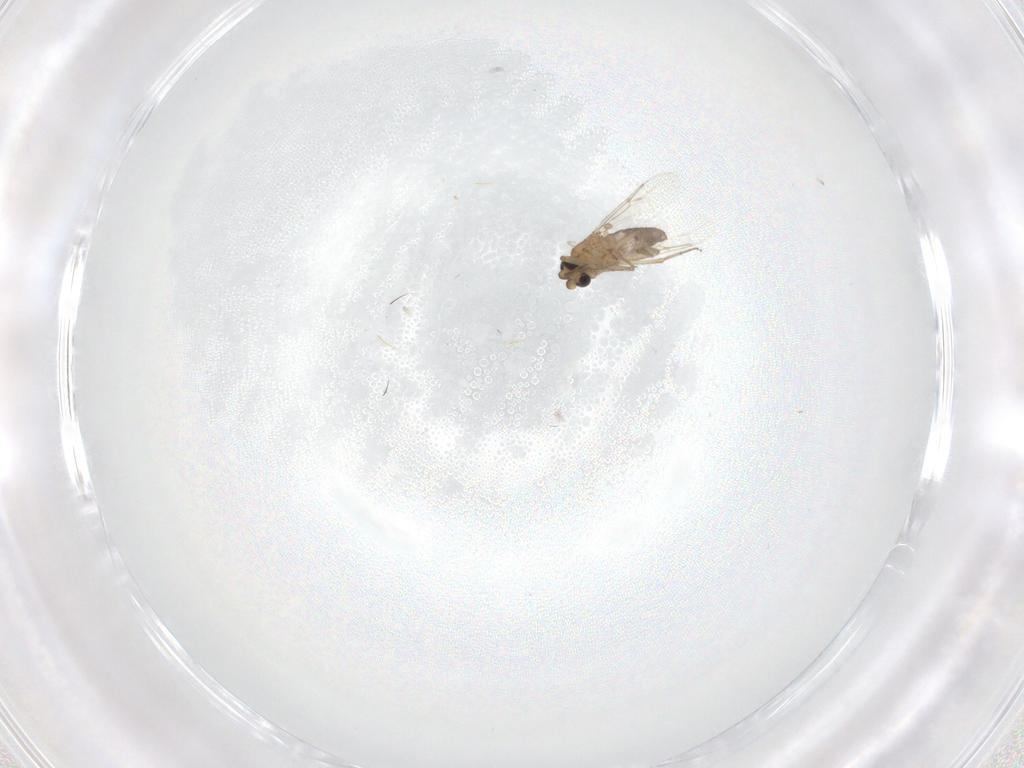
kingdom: Animalia
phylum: Arthropoda
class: Insecta
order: Diptera
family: Cecidomyiidae
